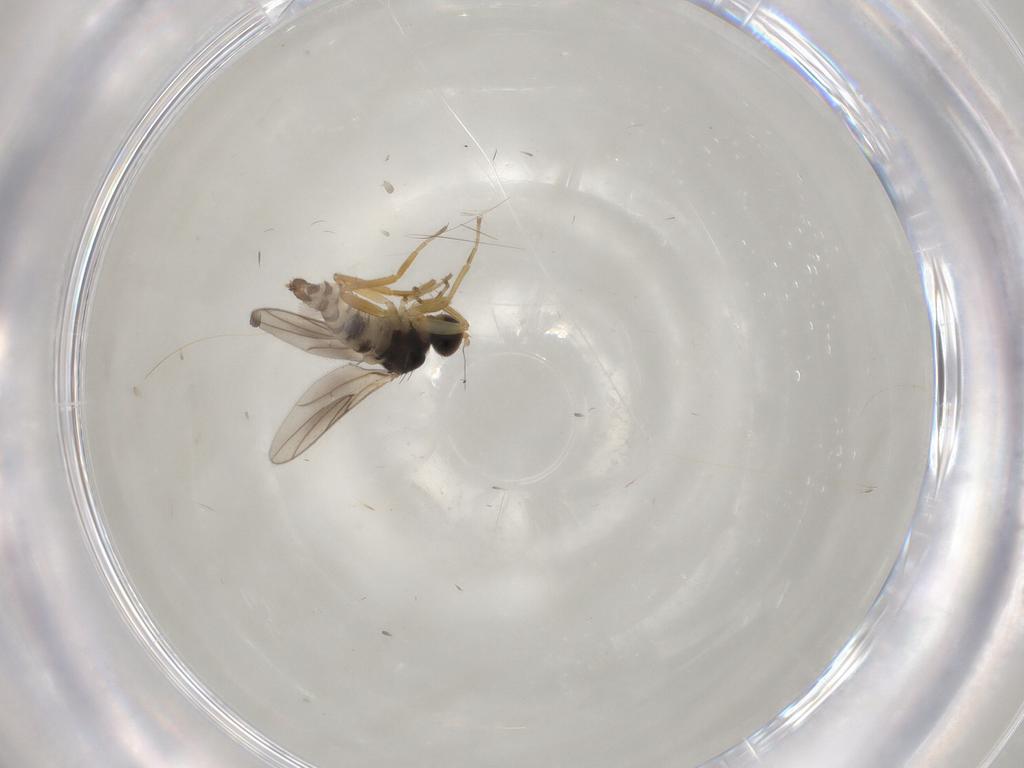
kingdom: Animalia
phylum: Arthropoda
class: Insecta
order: Diptera
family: Hybotidae
